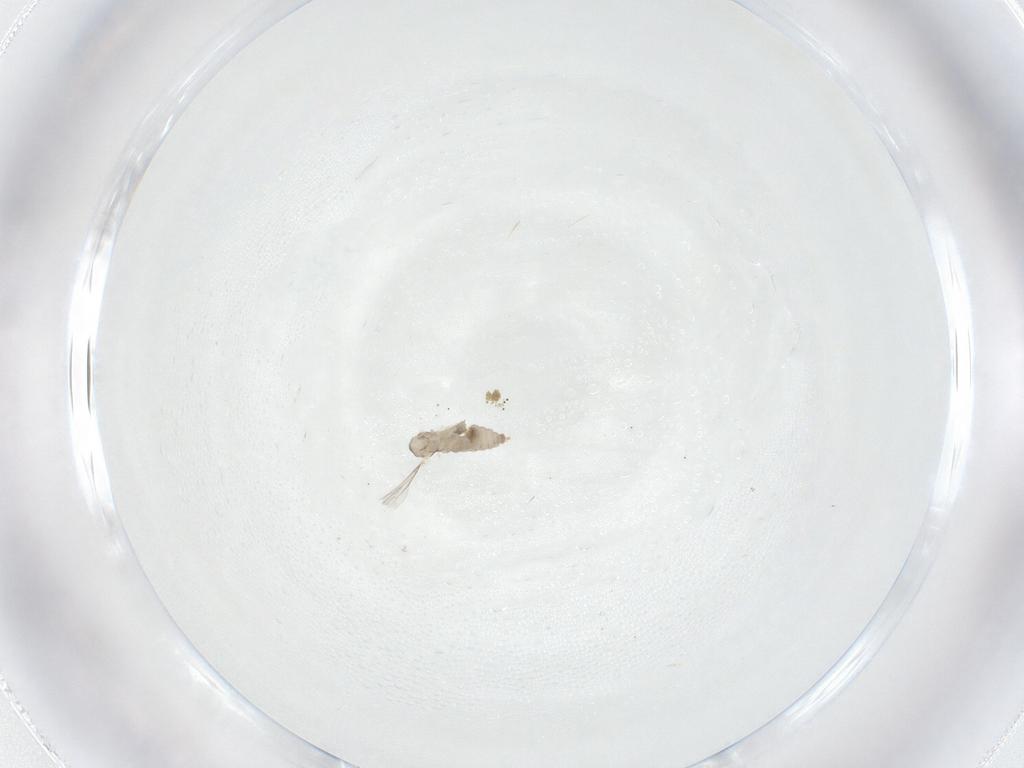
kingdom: Animalia
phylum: Arthropoda
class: Insecta
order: Diptera
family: Cecidomyiidae
